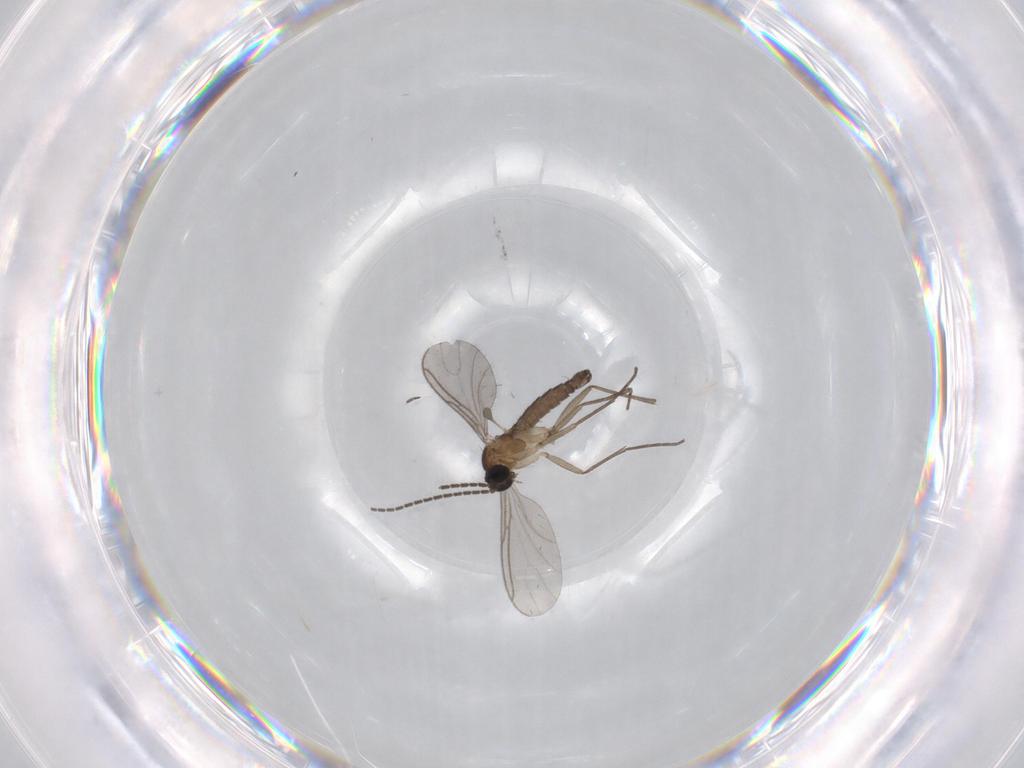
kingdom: Animalia
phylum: Arthropoda
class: Insecta
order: Diptera
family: Sciaridae
